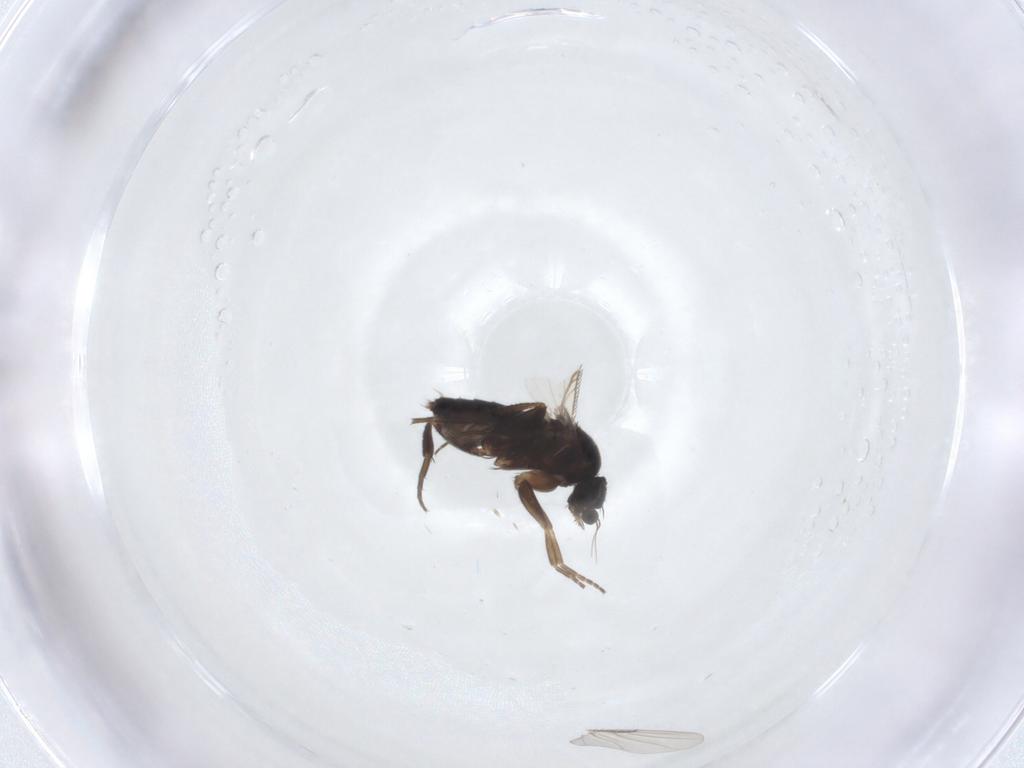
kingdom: Animalia
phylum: Arthropoda
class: Insecta
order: Diptera
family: Phoridae
